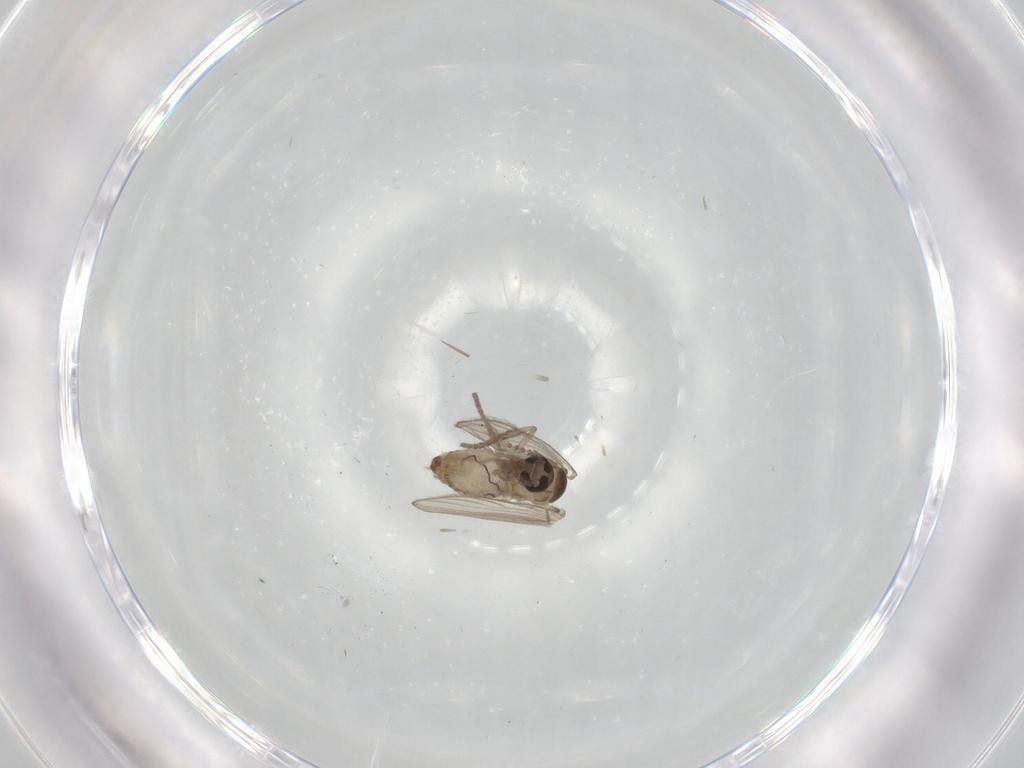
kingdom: Animalia
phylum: Arthropoda
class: Insecta
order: Diptera
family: Psychodidae
